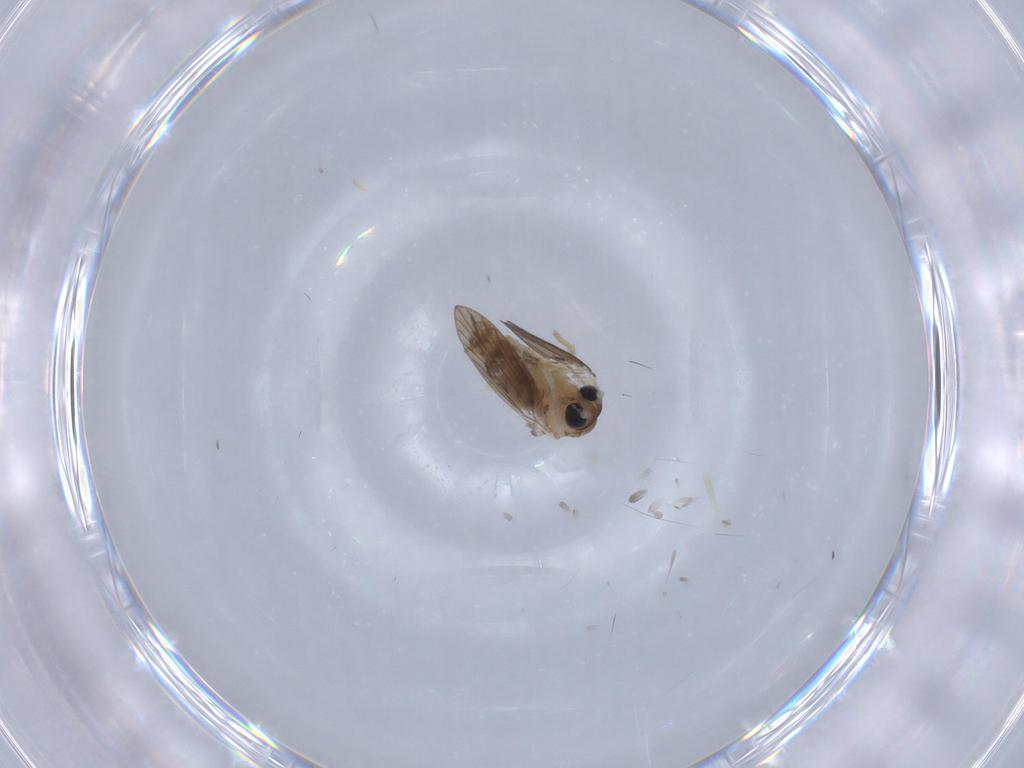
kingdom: Animalia
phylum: Arthropoda
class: Insecta
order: Diptera
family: Psychodidae
